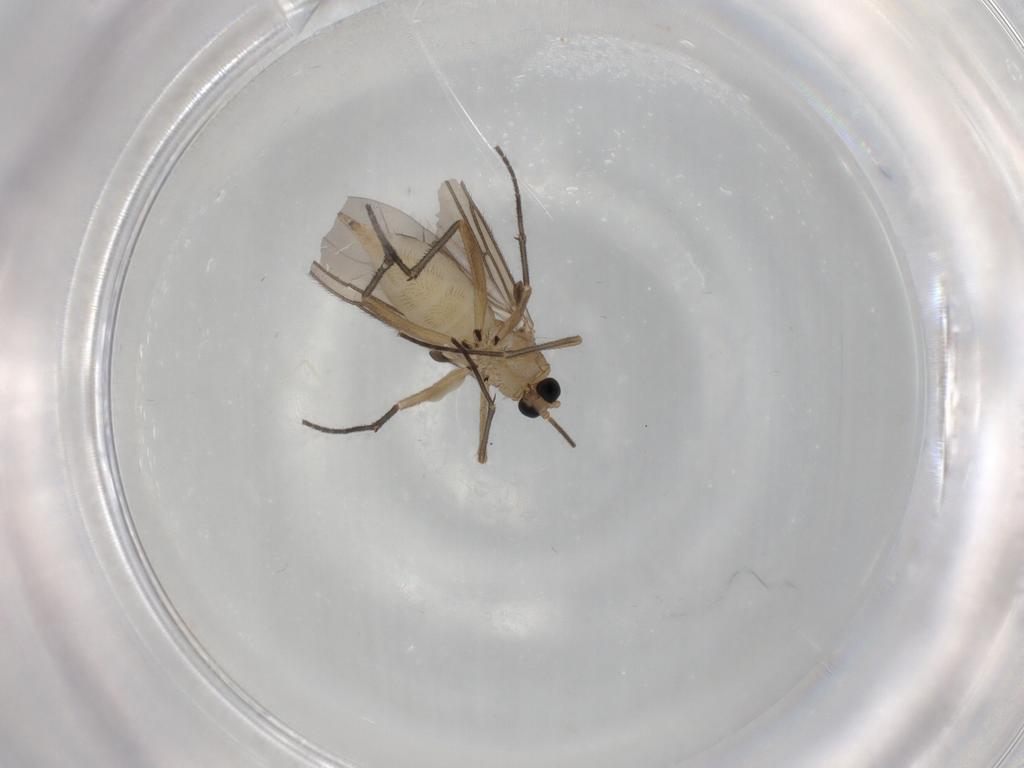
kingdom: Animalia
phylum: Arthropoda
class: Insecta
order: Diptera
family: Sciaridae
